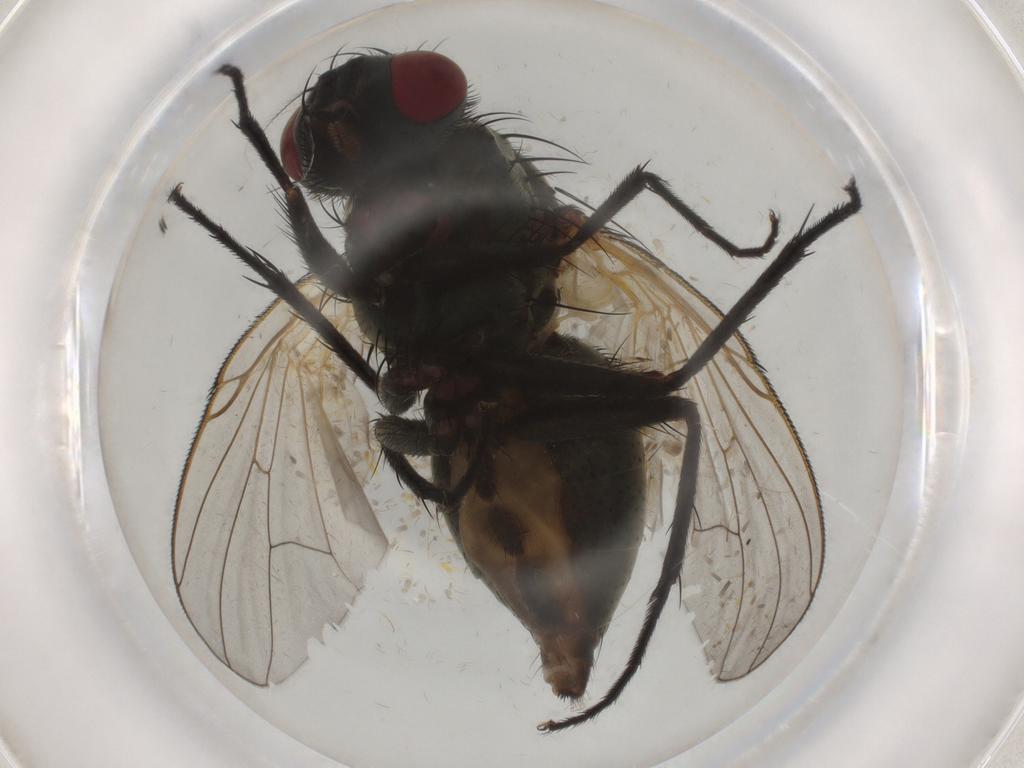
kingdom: Animalia
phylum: Arthropoda
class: Insecta
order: Diptera
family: Muscidae
